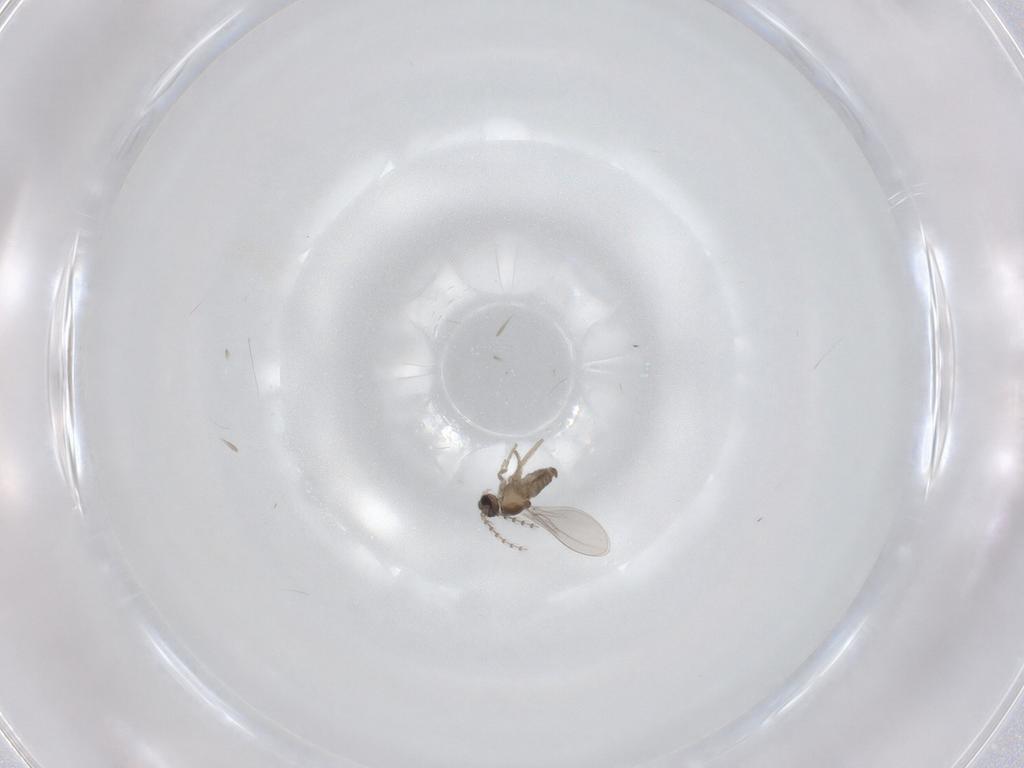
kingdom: Animalia
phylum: Arthropoda
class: Insecta
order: Diptera
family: Cecidomyiidae
